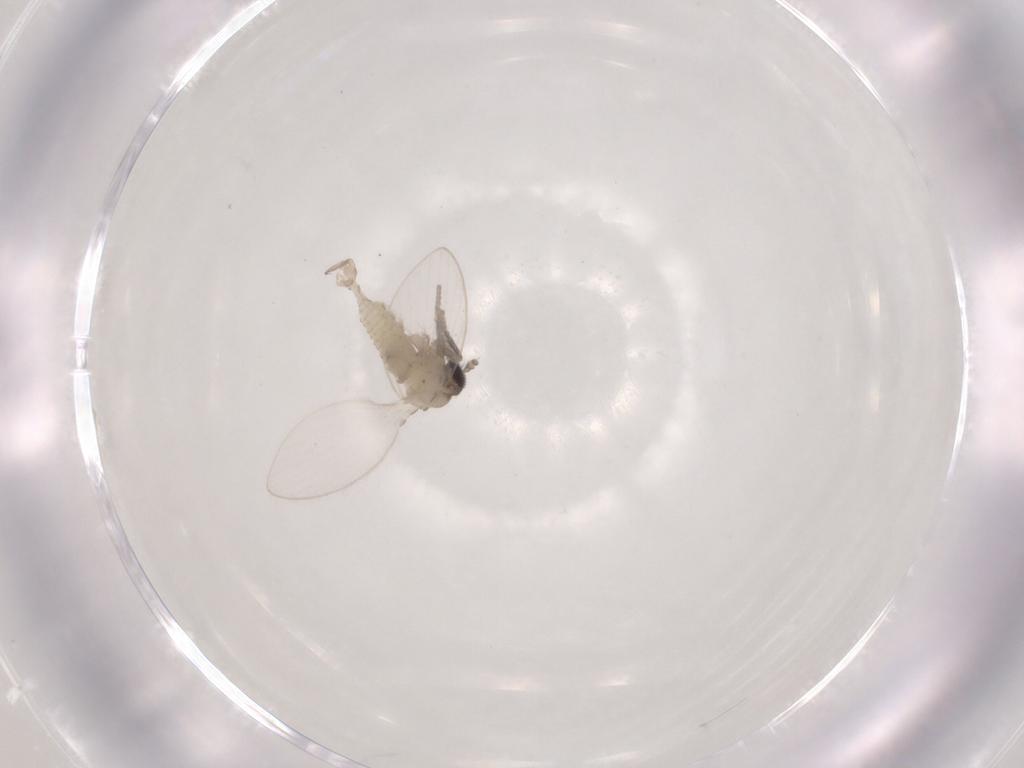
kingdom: Animalia
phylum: Arthropoda
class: Insecta
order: Diptera
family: Psychodidae
